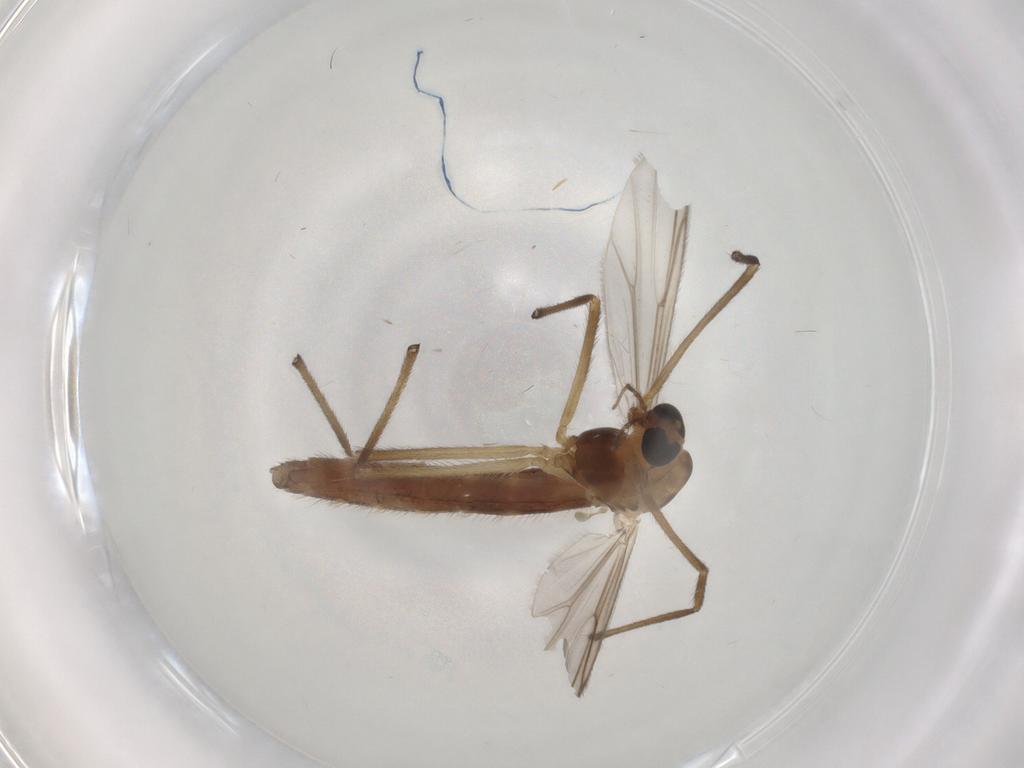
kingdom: Animalia
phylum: Arthropoda
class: Insecta
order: Diptera
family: Chironomidae
